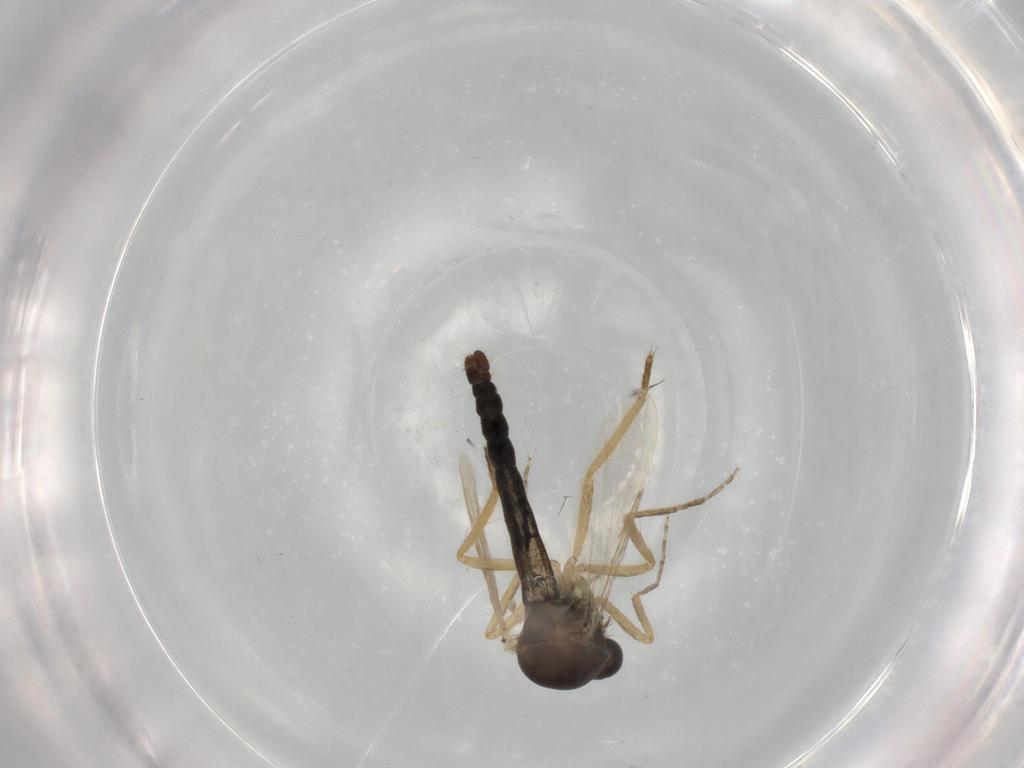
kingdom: Animalia
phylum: Arthropoda
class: Insecta
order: Diptera
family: Ceratopogonidae
